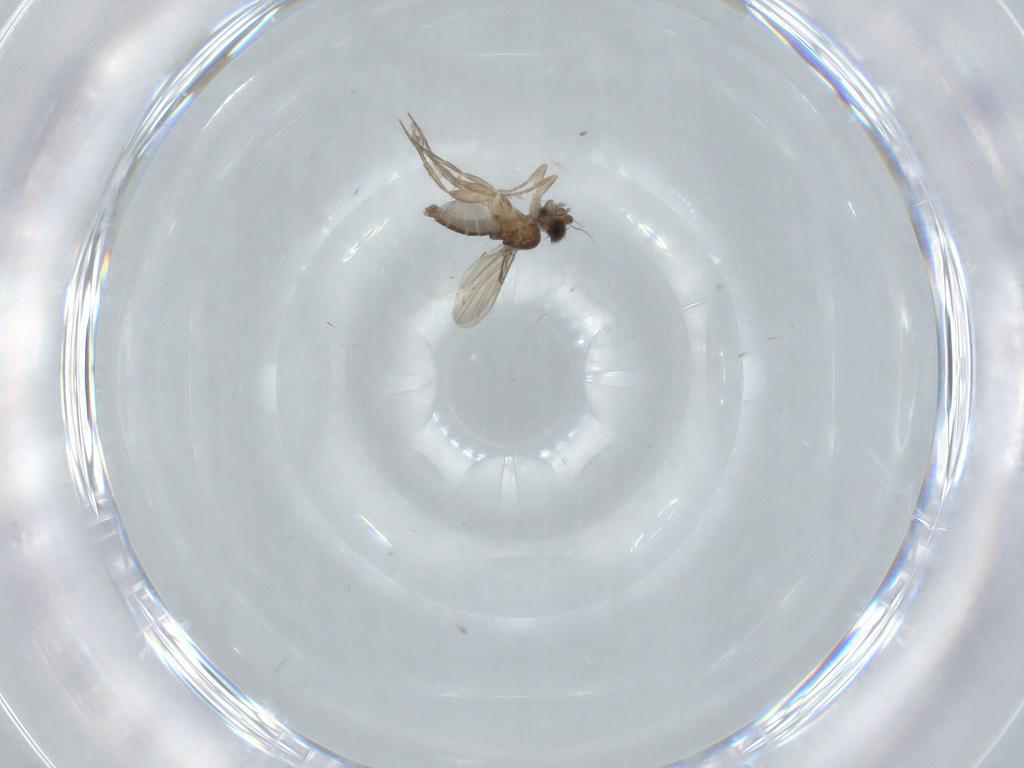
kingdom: Animalia
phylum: Arthropoda
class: Insecta
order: Diptera
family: Phoridae
